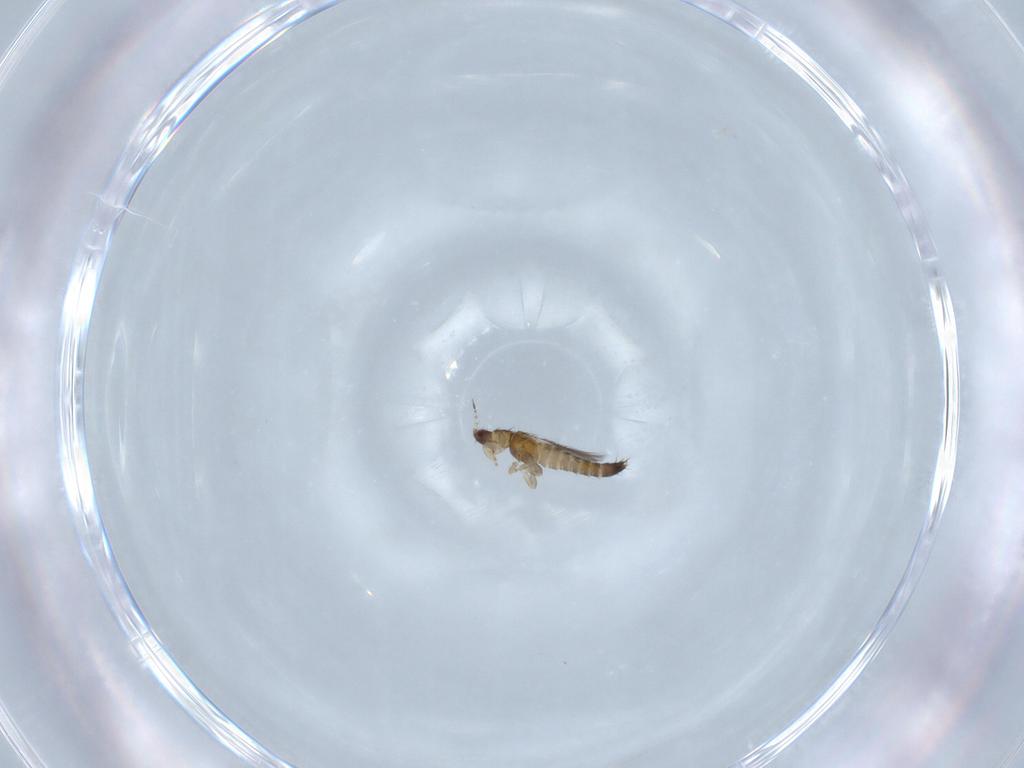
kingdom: Animalia
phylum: Arthropoda
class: Insecta
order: Thysanoptera
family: Thripidae
